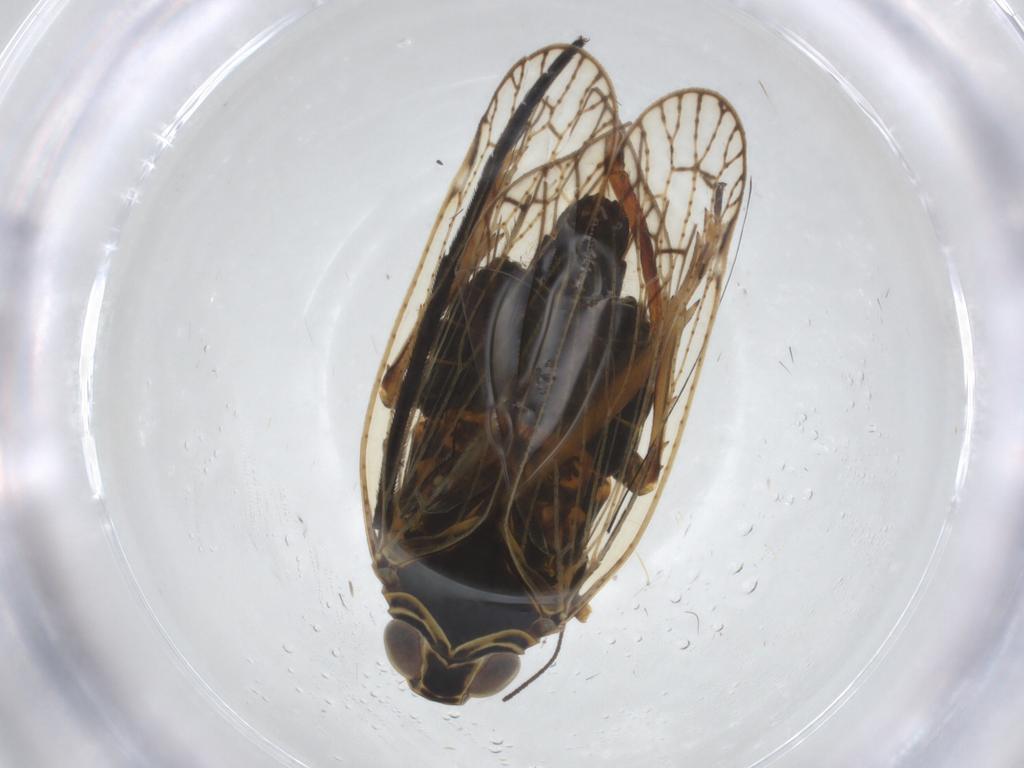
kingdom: Animalia
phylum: Arthropoda
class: Insecta
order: Hemiptera
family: Cixiidae
